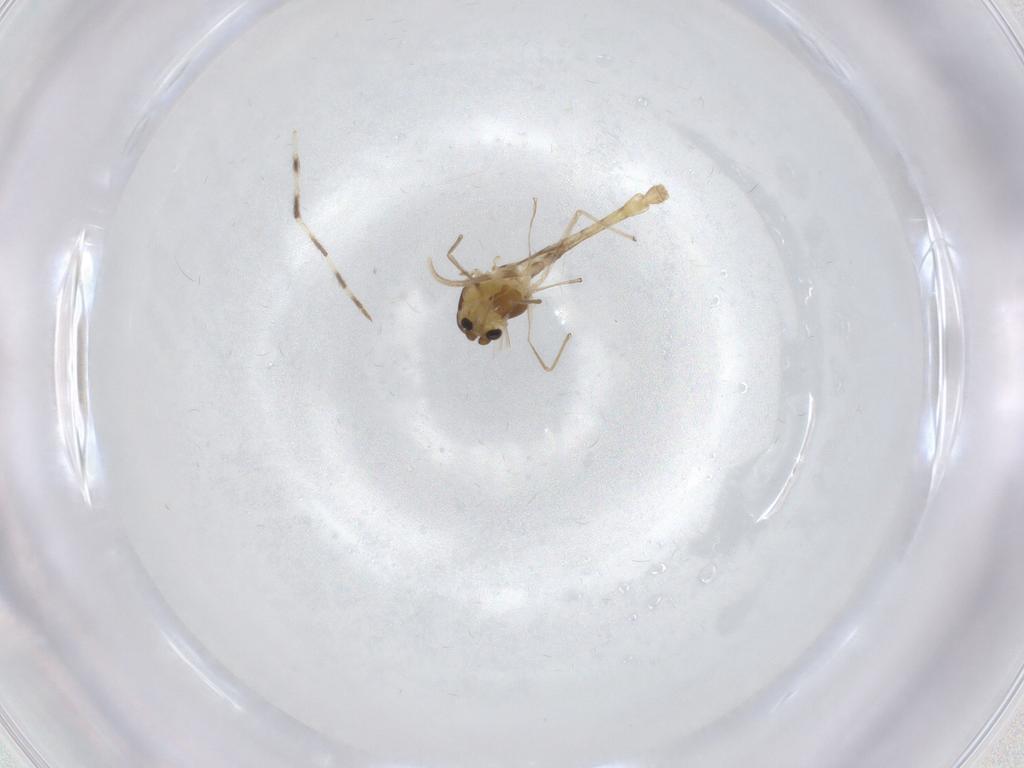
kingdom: Animalia
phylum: Arthropoda
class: Insecta
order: Diptera
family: Chironomidae
